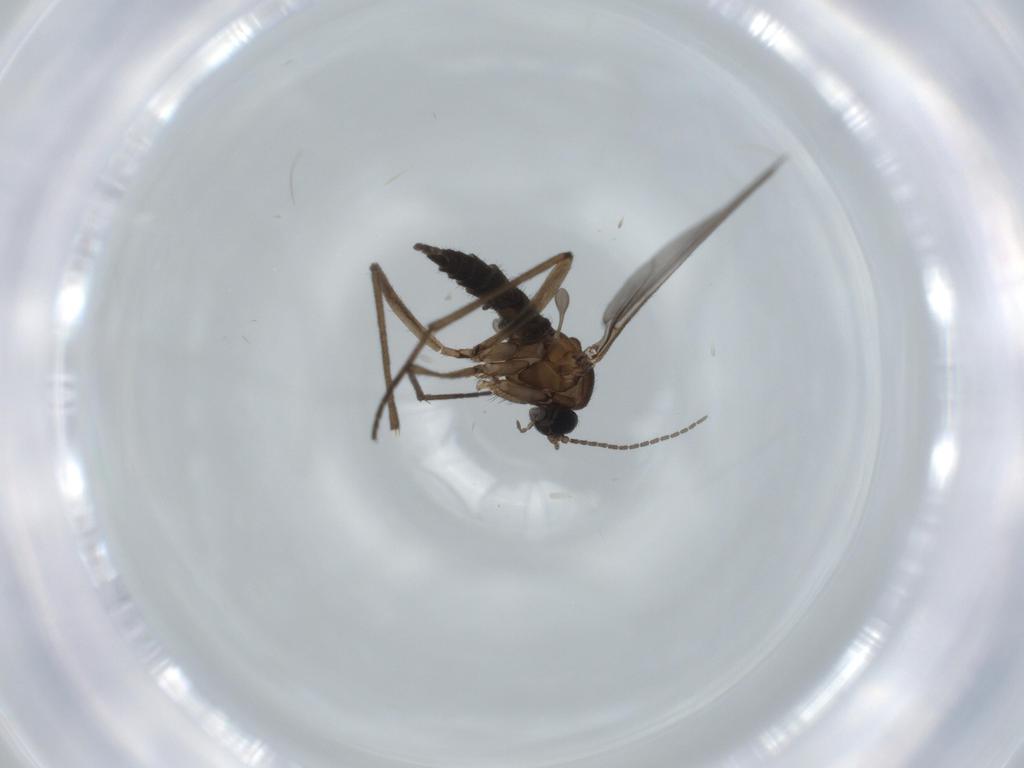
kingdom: Animalia
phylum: Arthropoda
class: Insecta
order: Diptera
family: Sciaridae
